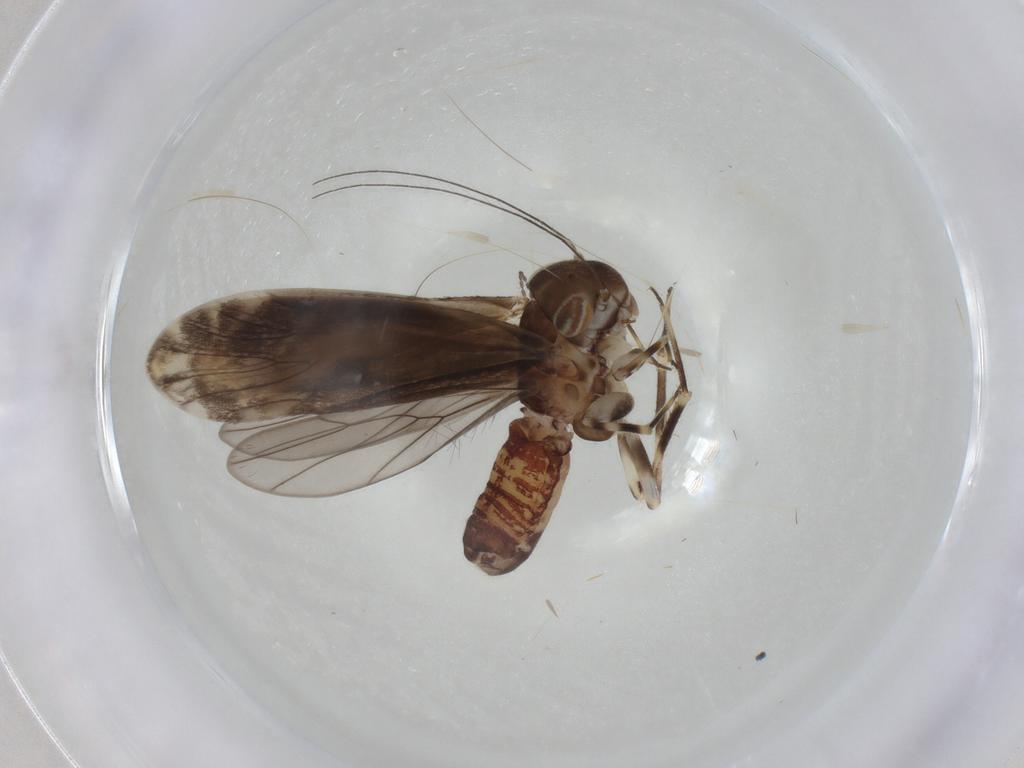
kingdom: Animalia
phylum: Arthropoda
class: Insecta
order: Psocodea
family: Amphientomidae
